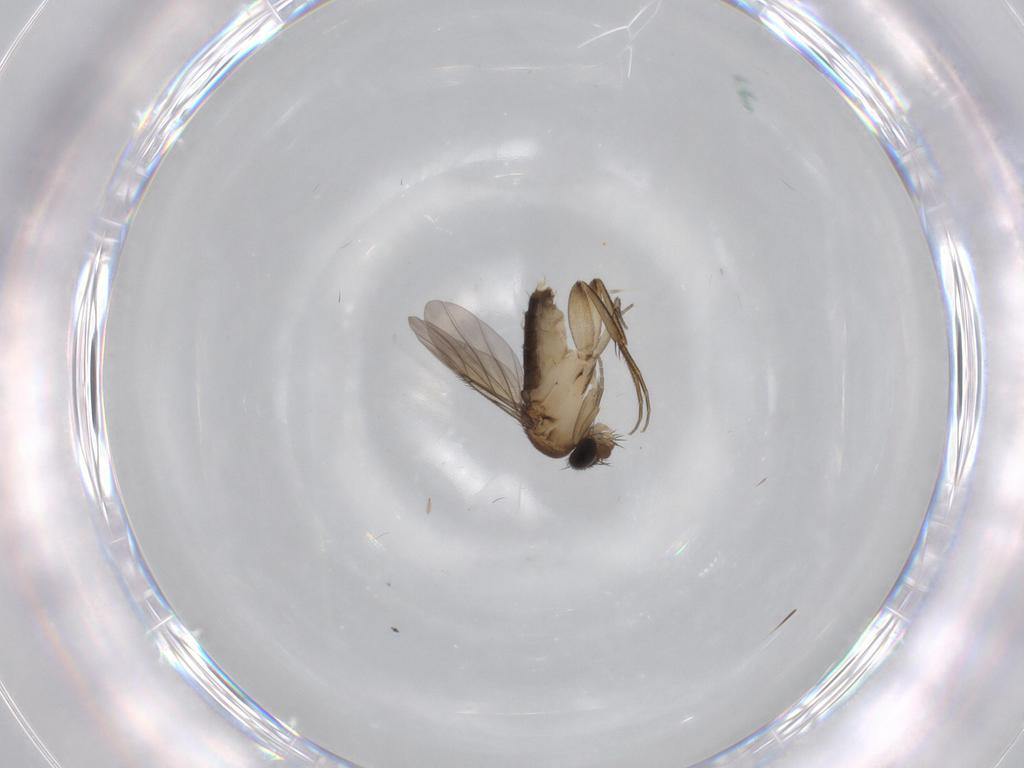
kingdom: Animalia
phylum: Arthropoda
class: Insecta
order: Diptera
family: Phoridae
